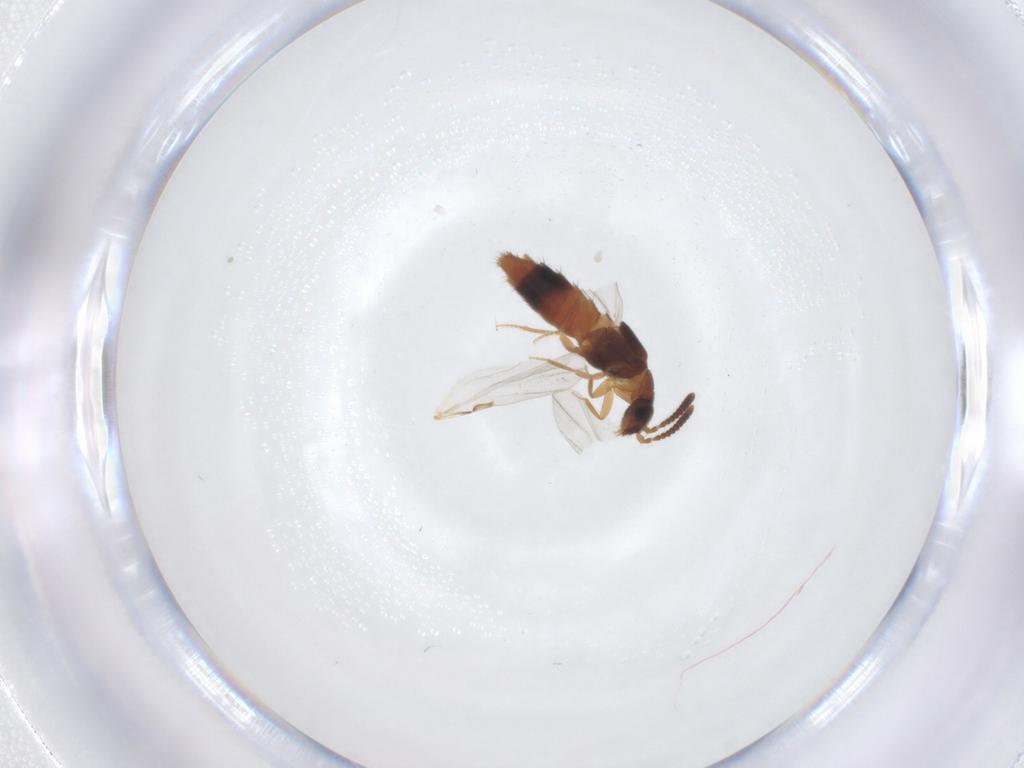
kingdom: Animalia
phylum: Arthropoda
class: Insecta
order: Coleoptera
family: Staphylinidae
